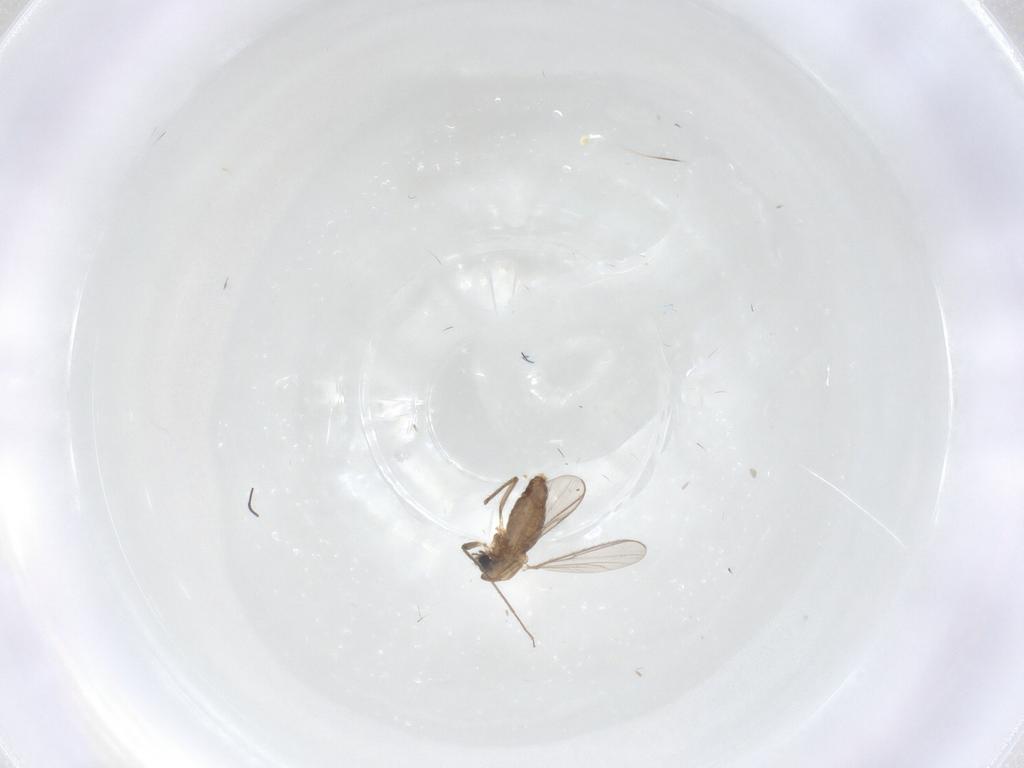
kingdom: Animalia
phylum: Arthropoda
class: Insecta
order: Diptera
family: Chironomidae
